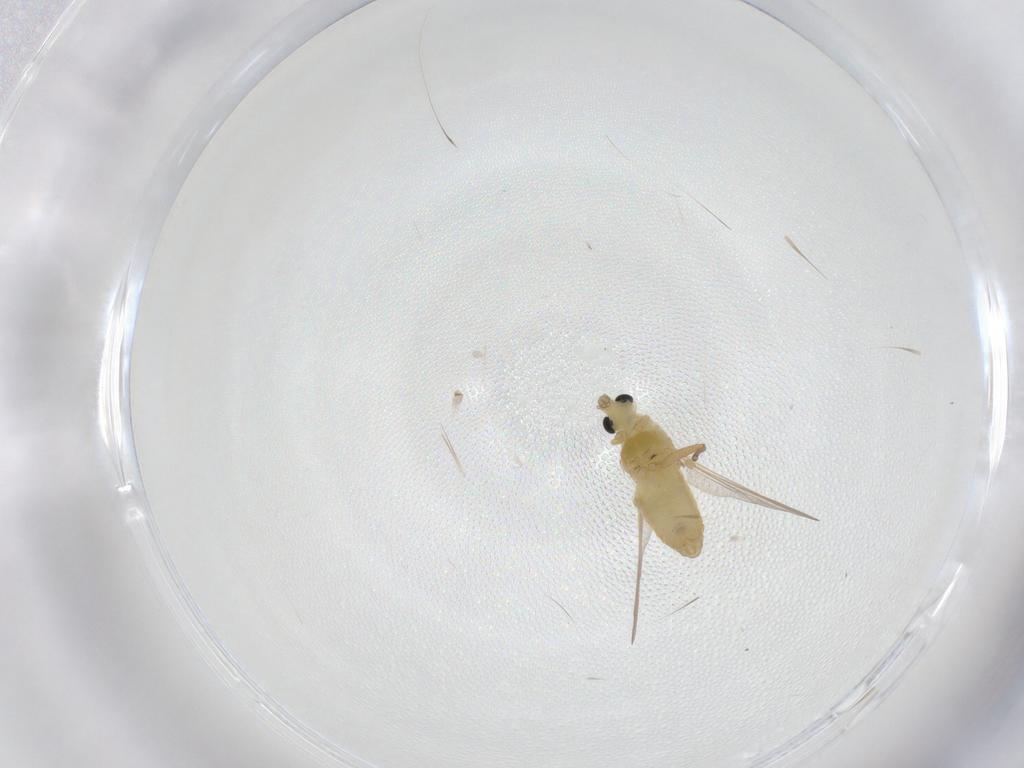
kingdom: Animalia
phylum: Arthropoda
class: Insecta
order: Diptera
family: Chironomidae
